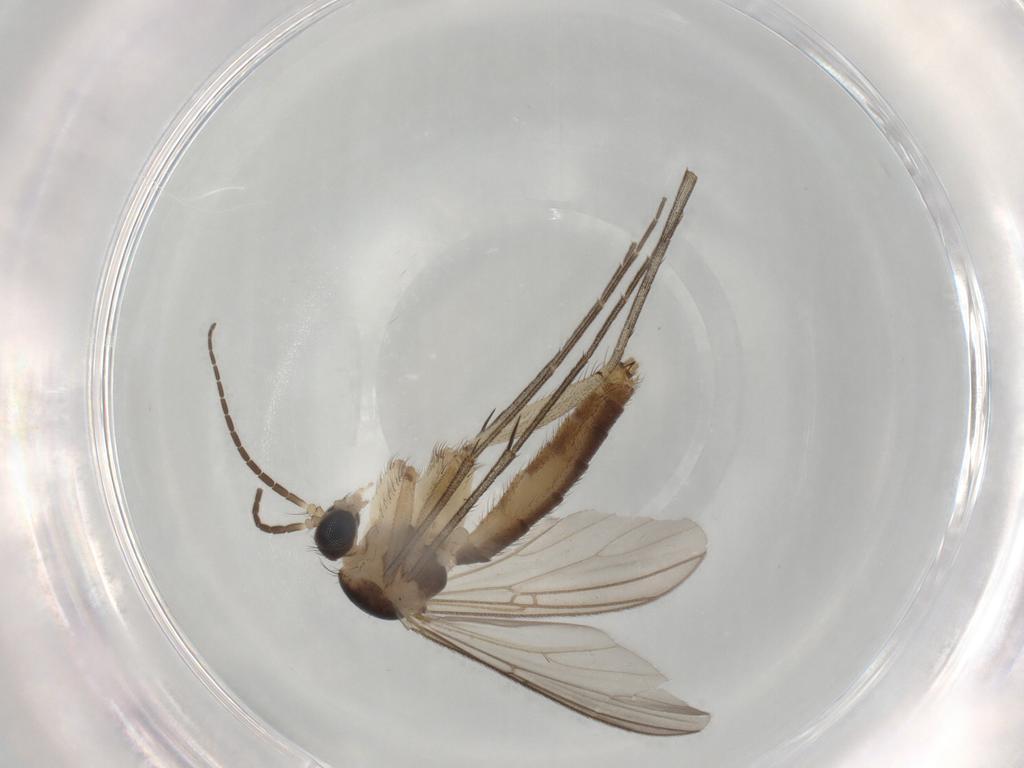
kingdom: Animalia
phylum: Arthropoda
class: Insecta
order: Diptera
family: Mycetophilidae
